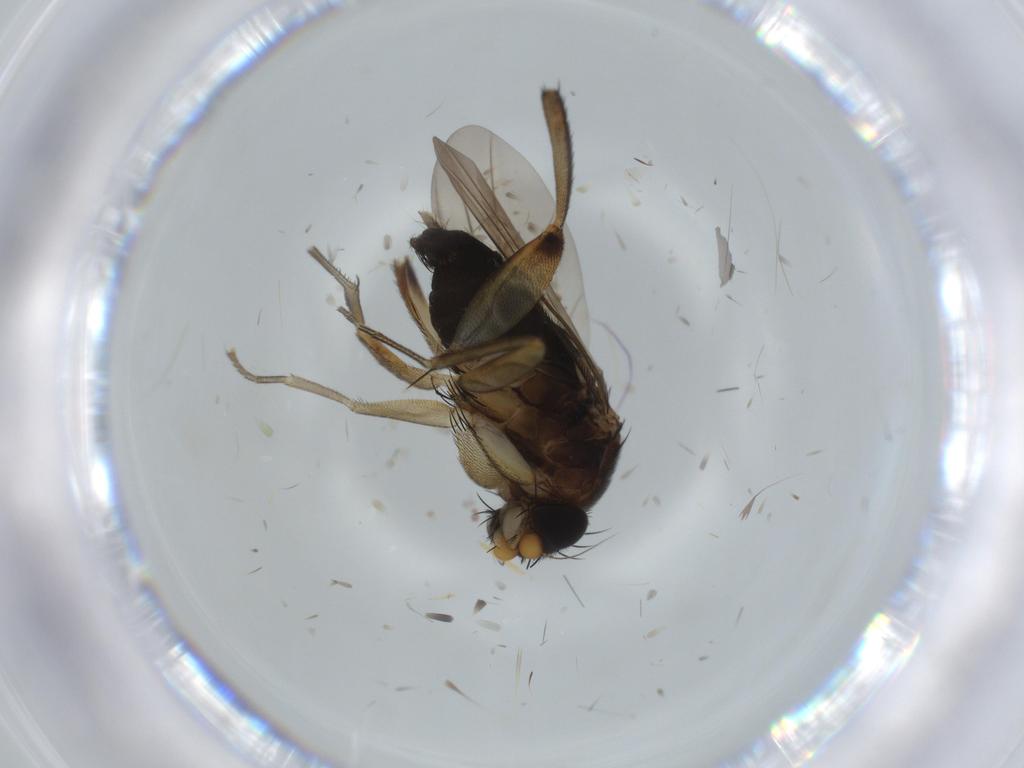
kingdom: Animalia
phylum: Arthropoda
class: Insecta
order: Diptera
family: Phoridae
